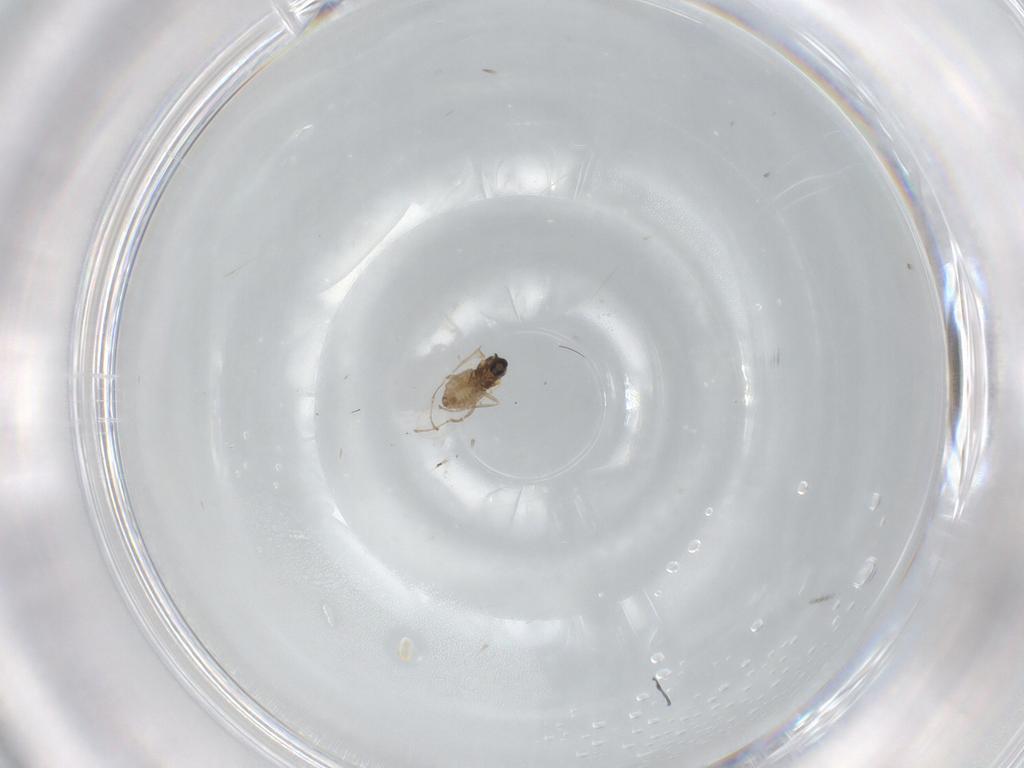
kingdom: Animalia
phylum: Arthropoda
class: Insecta
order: Diptera
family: Cecidomyiidae
